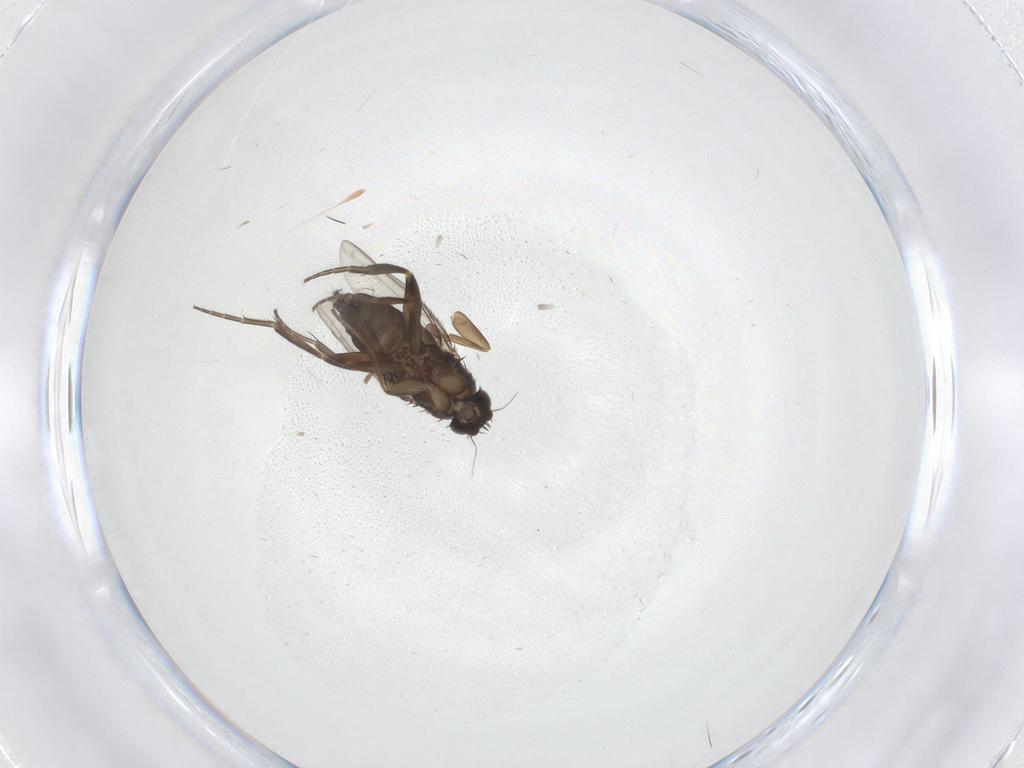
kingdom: Animalia
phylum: Arthropoda
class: Insecta
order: Diptera
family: Phoridae
